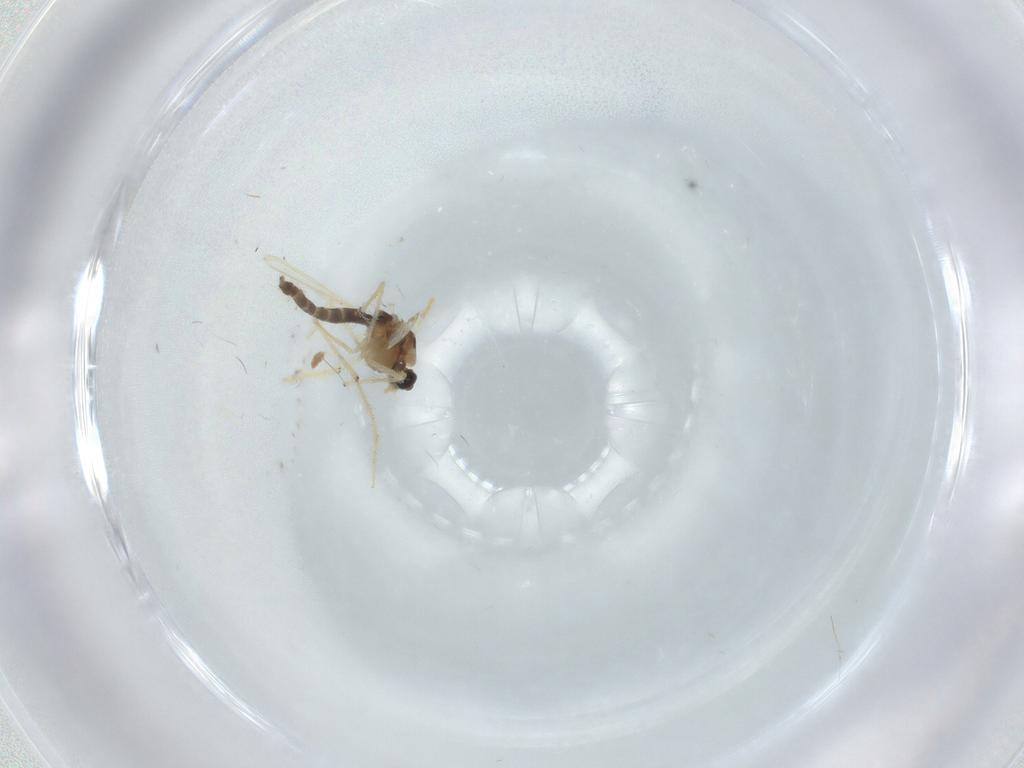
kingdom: Animalia
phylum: Arthropoda
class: Insecta
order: Diptera
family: Chironomidae
